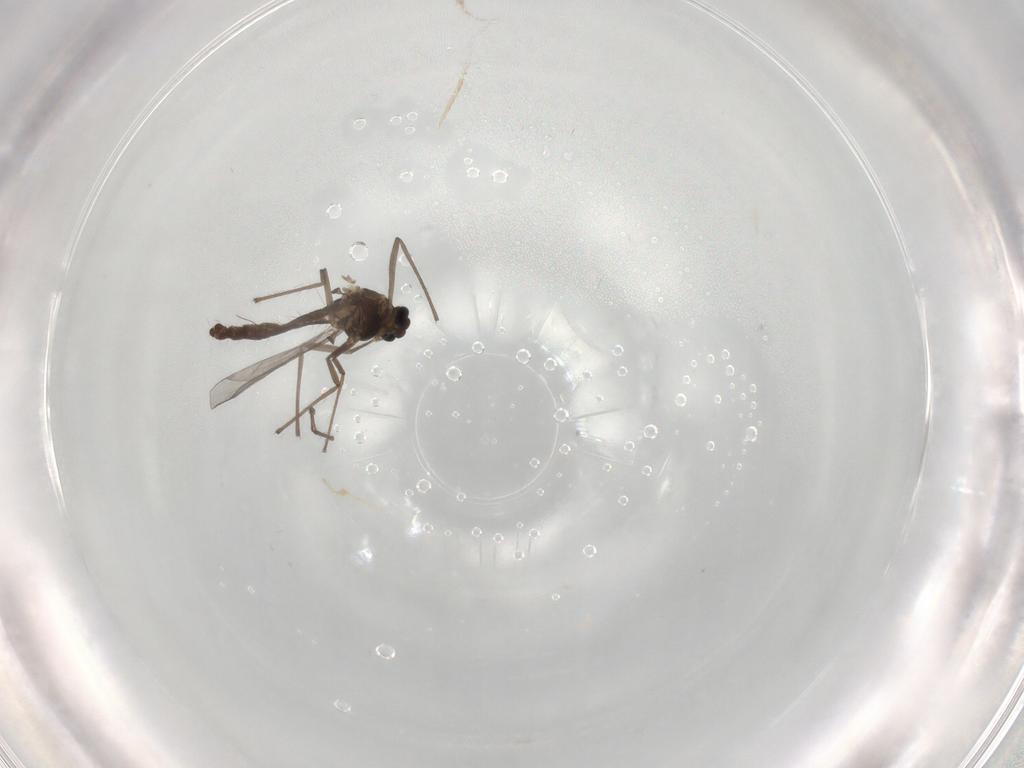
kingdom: Animalia
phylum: Arthropoda
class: Insecta
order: Diptera
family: Chironomidae
